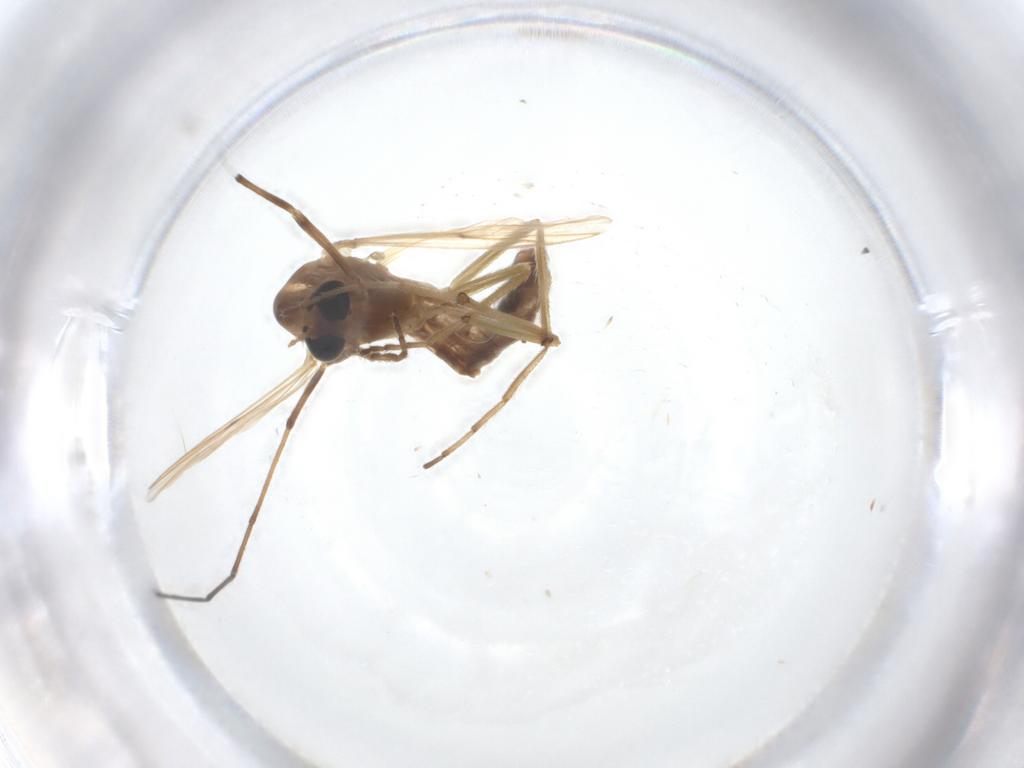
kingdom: Animalia
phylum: Arthropoda
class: Insecta
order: Diptera
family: Chironomidae
